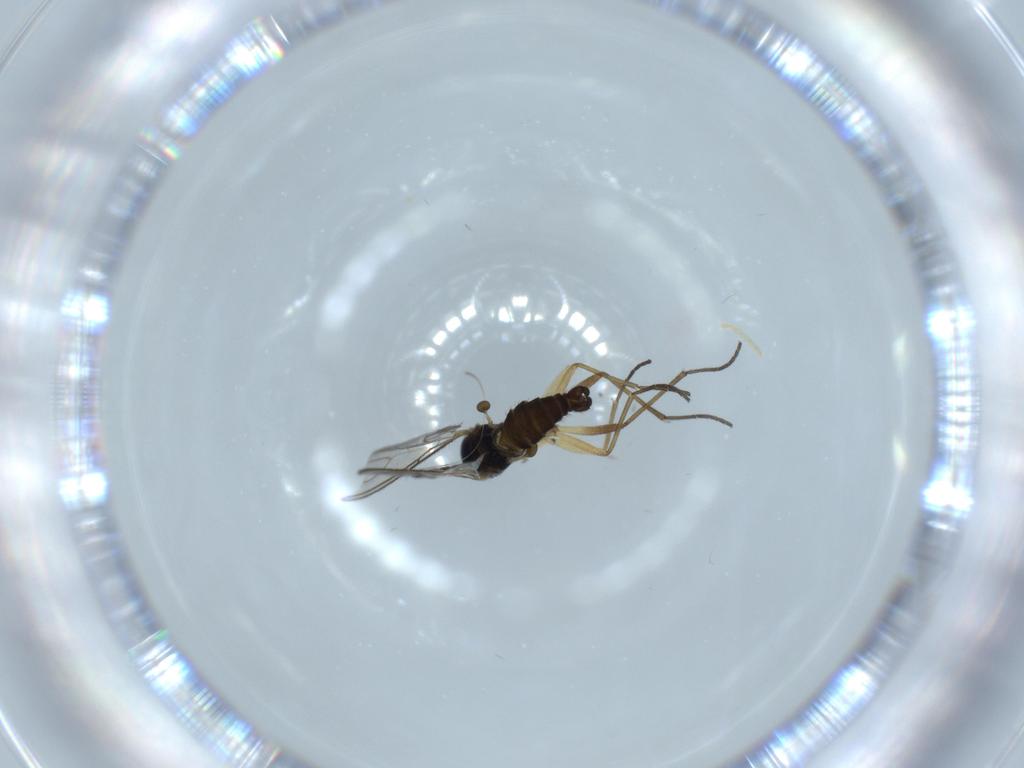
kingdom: Animalia
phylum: Arthropoda
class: Insecta
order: Diptera
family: Sciaridae
